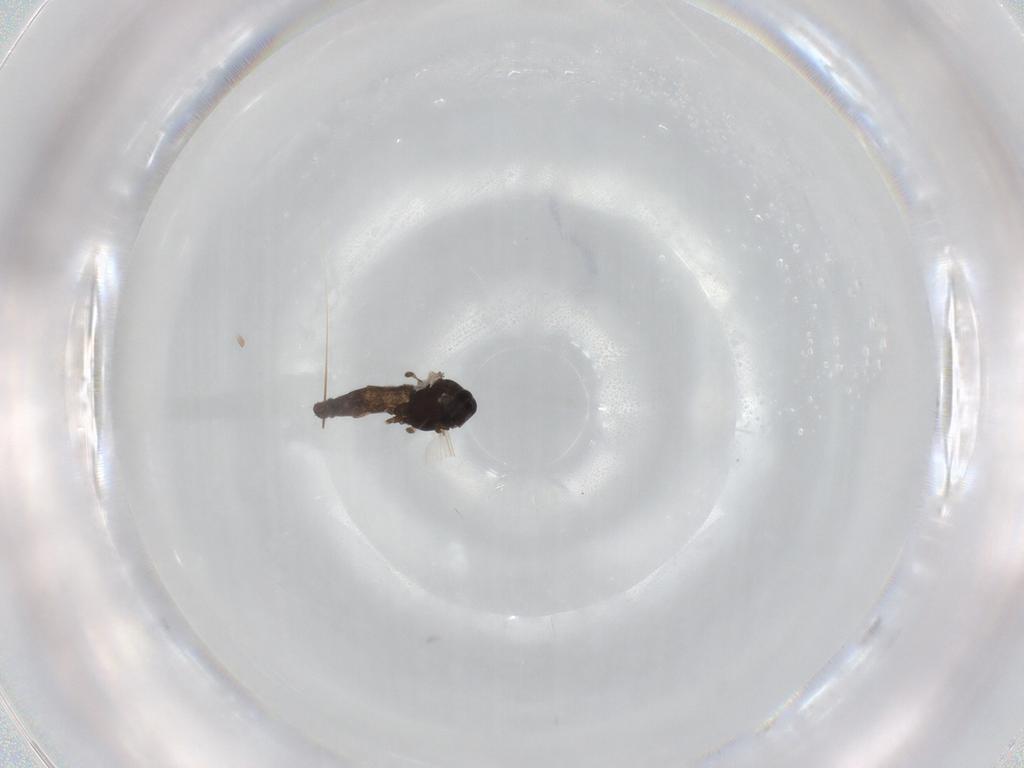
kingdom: Animalia
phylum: Arthropoda
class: Insecta
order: Diptera
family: Chironomidae
